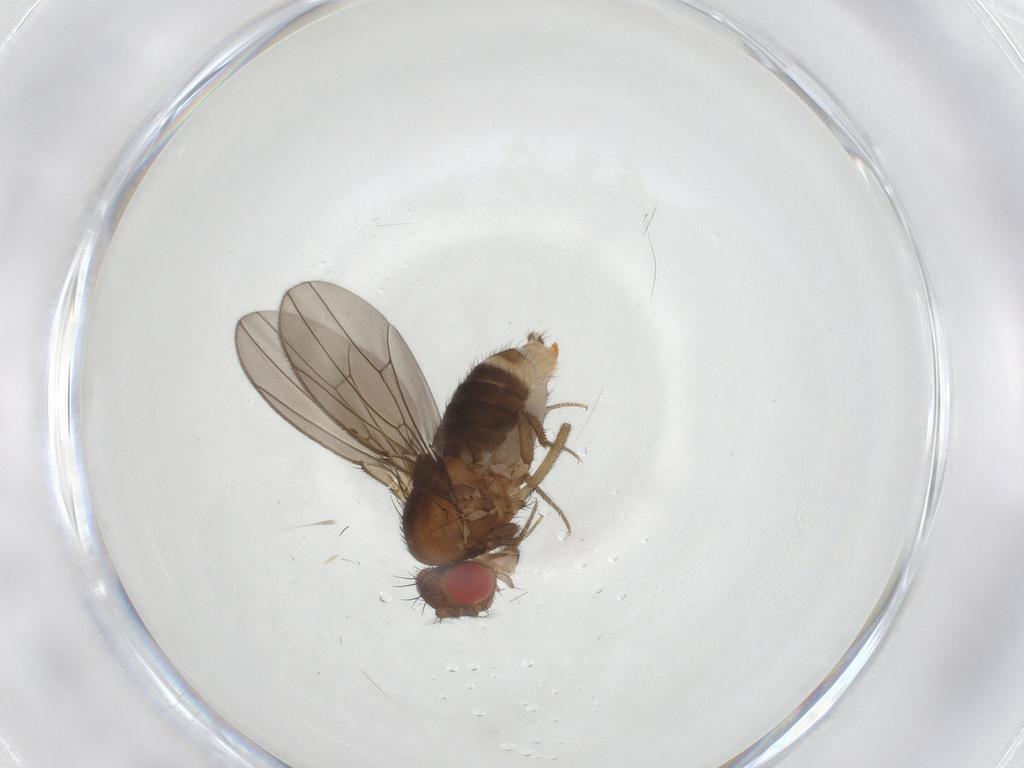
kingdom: Animalia
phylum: Arthropoda
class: Insecta
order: Diptera
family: Drosophilidae
